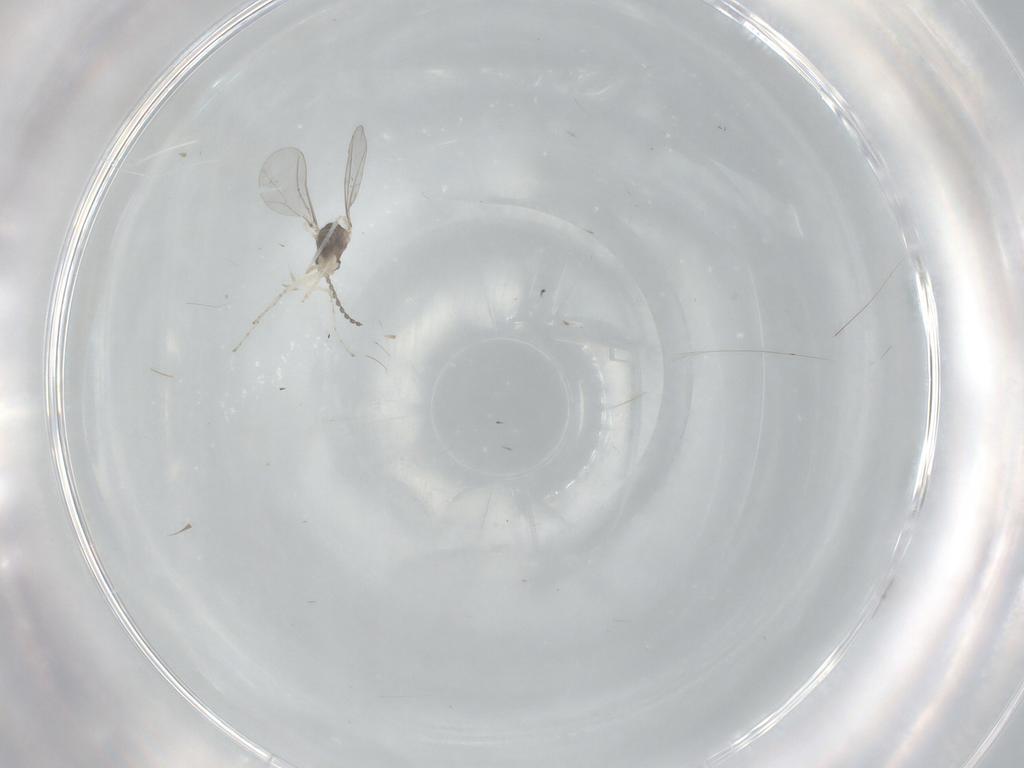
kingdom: Animalia
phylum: Arthropoda
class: Insecta
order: Diptera
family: Cecidomyiidae
